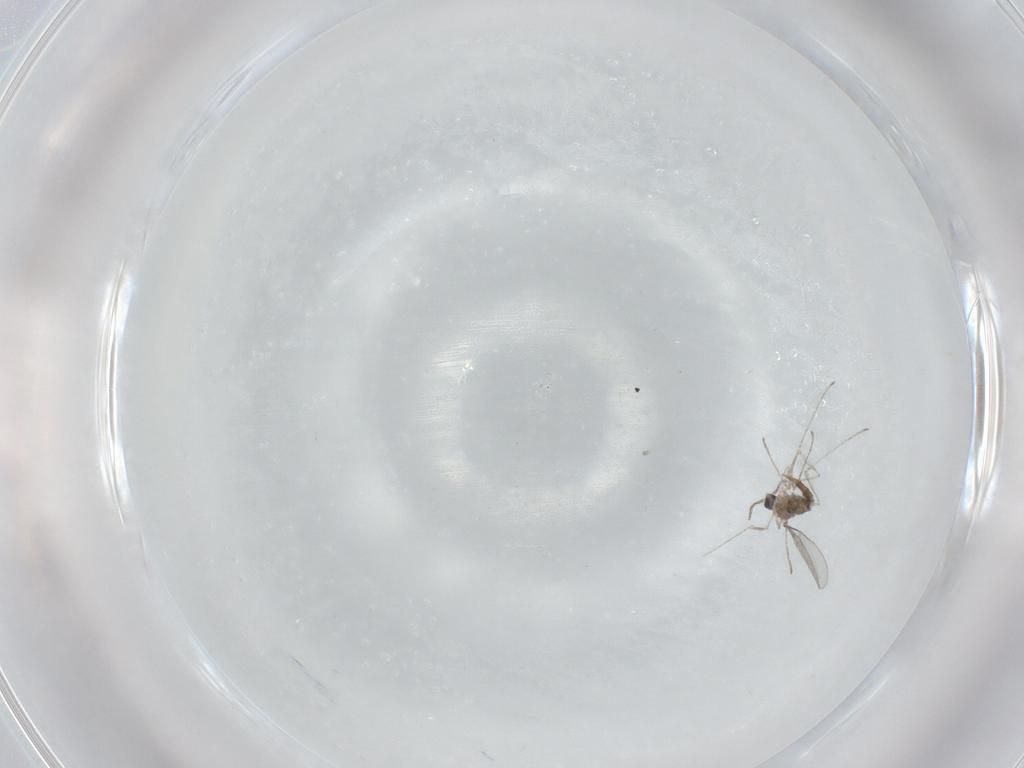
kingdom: Animalia
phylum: Arthropoda
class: Insecta
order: Diptera
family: Cecidomyiidae
